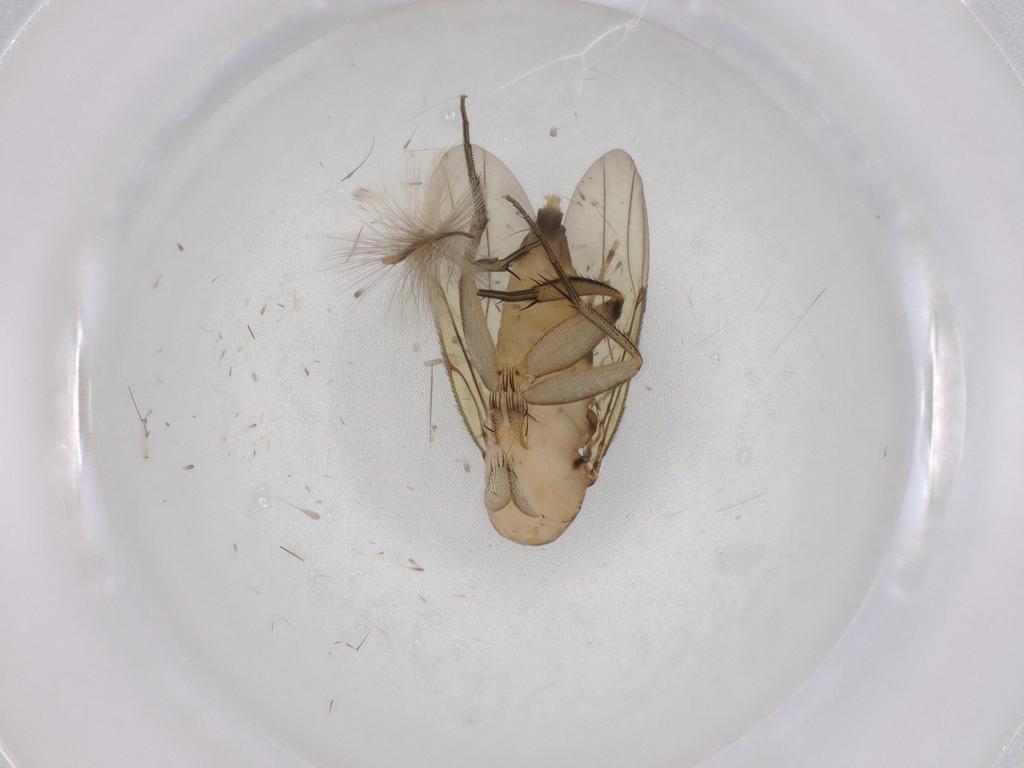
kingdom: Animalia
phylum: Arthropoda
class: Insecta
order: Diptera
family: Phoridae
